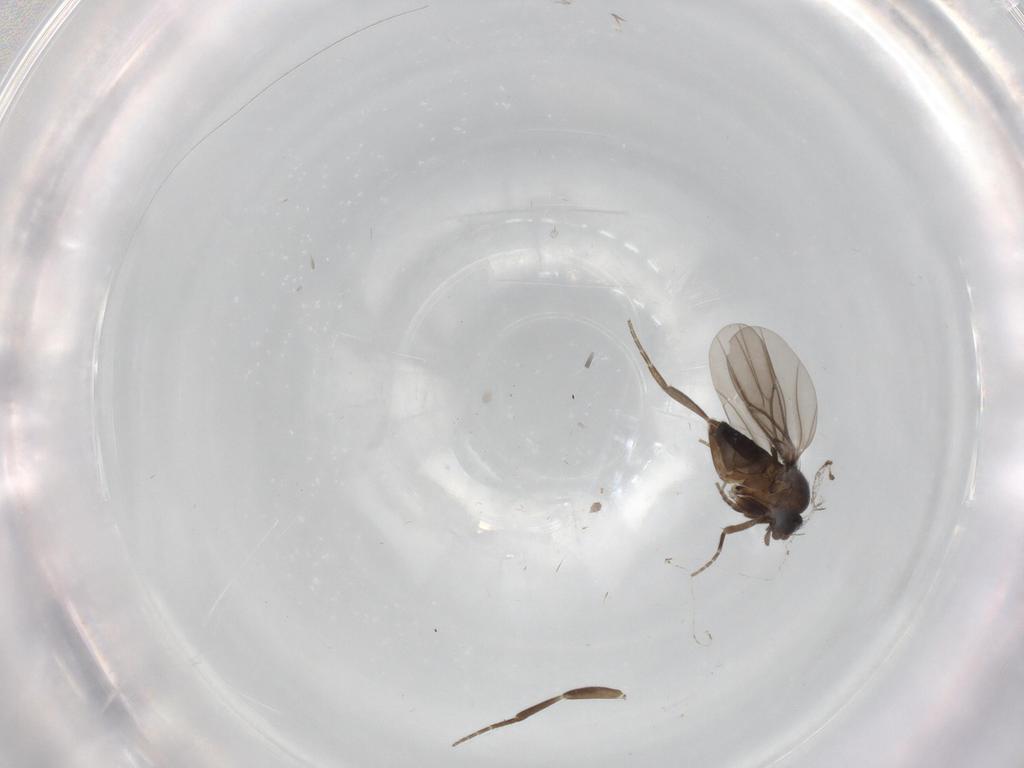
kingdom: Animalia
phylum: Arthropoda
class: Insecta
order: Diptera
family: Phoridae
